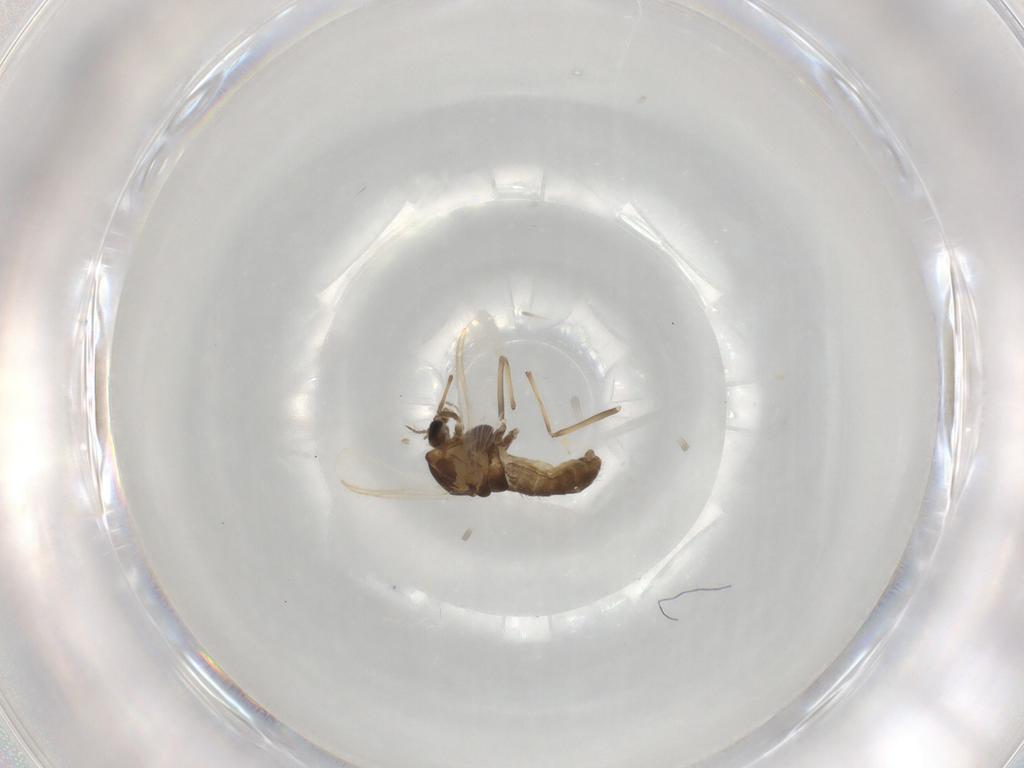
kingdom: Animalia
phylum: Arthropoda
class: Insecta
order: Diptera
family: Chironomidae
